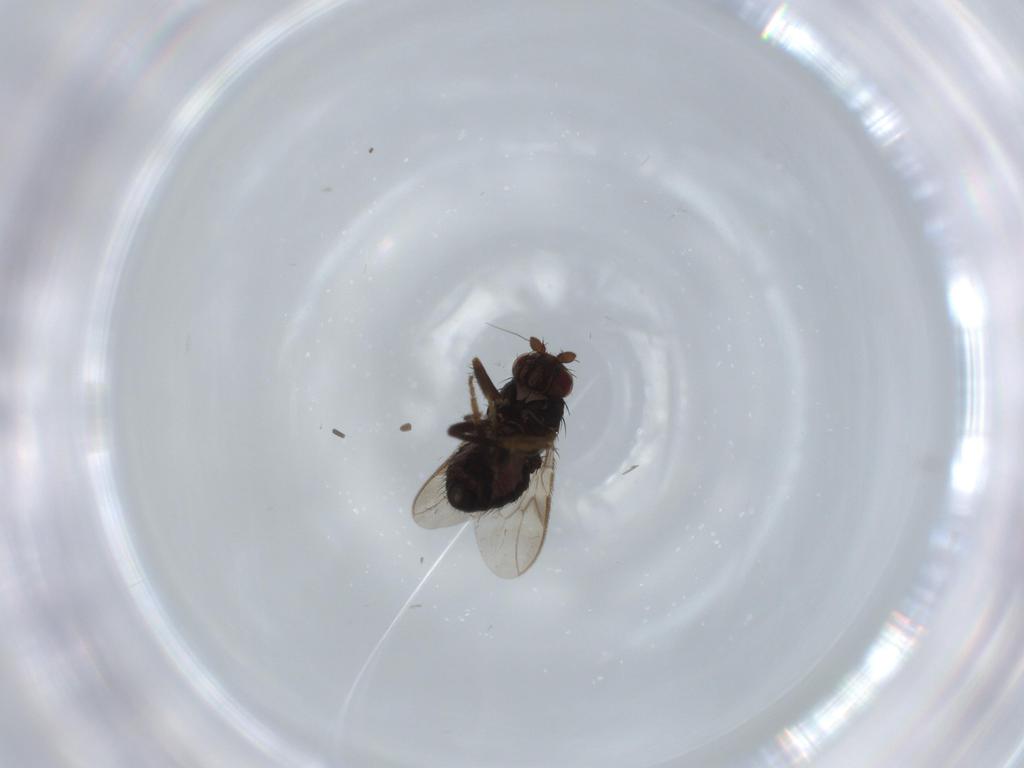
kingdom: Animalia
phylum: Arthropoda
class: Insecta
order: Diptera
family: Sphaeroceridae
